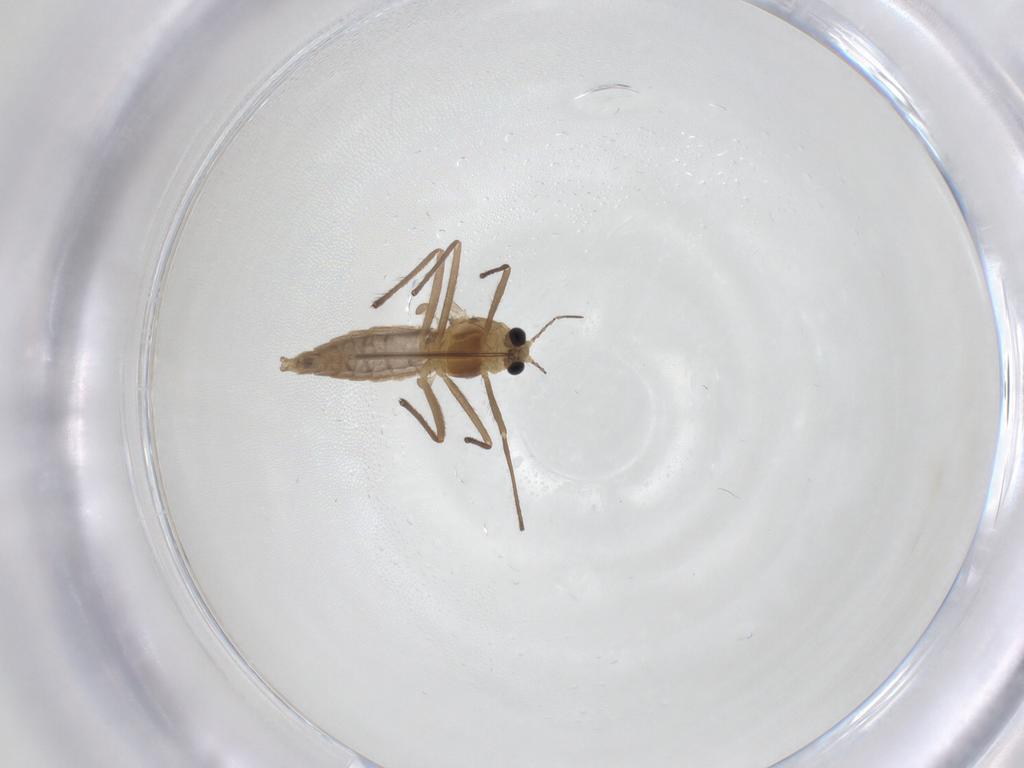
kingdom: Animalia
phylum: Arthropoda
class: Insecta
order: Diptera
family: Chironomidae
